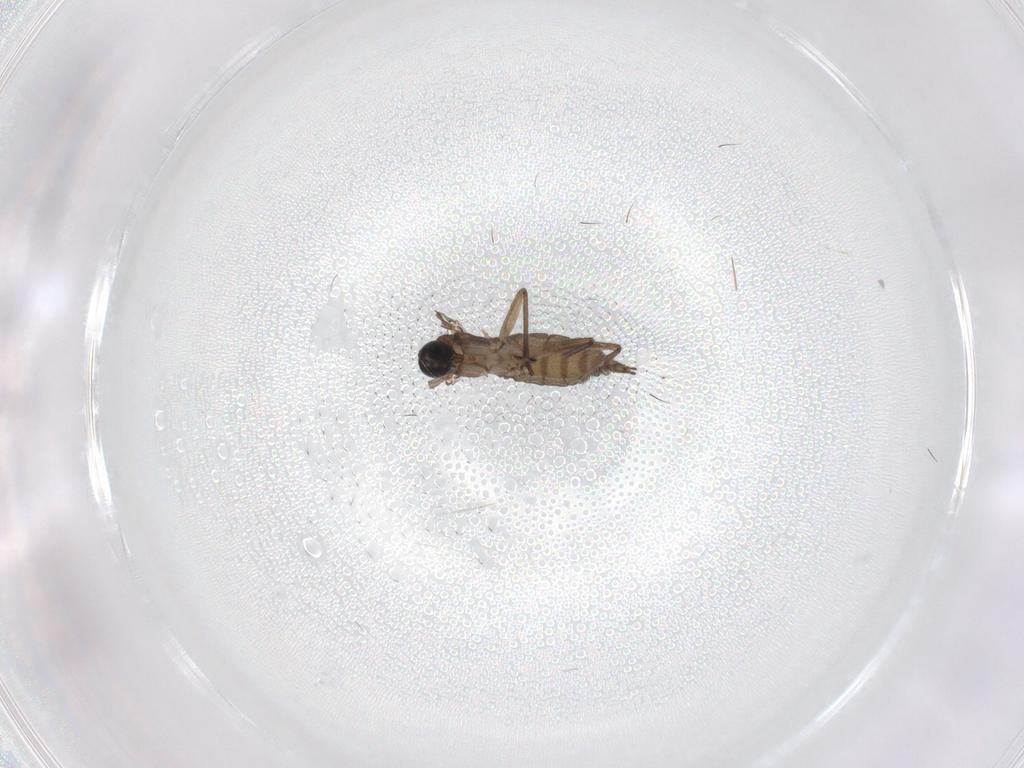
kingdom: Animalia
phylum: Arthropoda
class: Insecta
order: Diptera
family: Sciaridae
